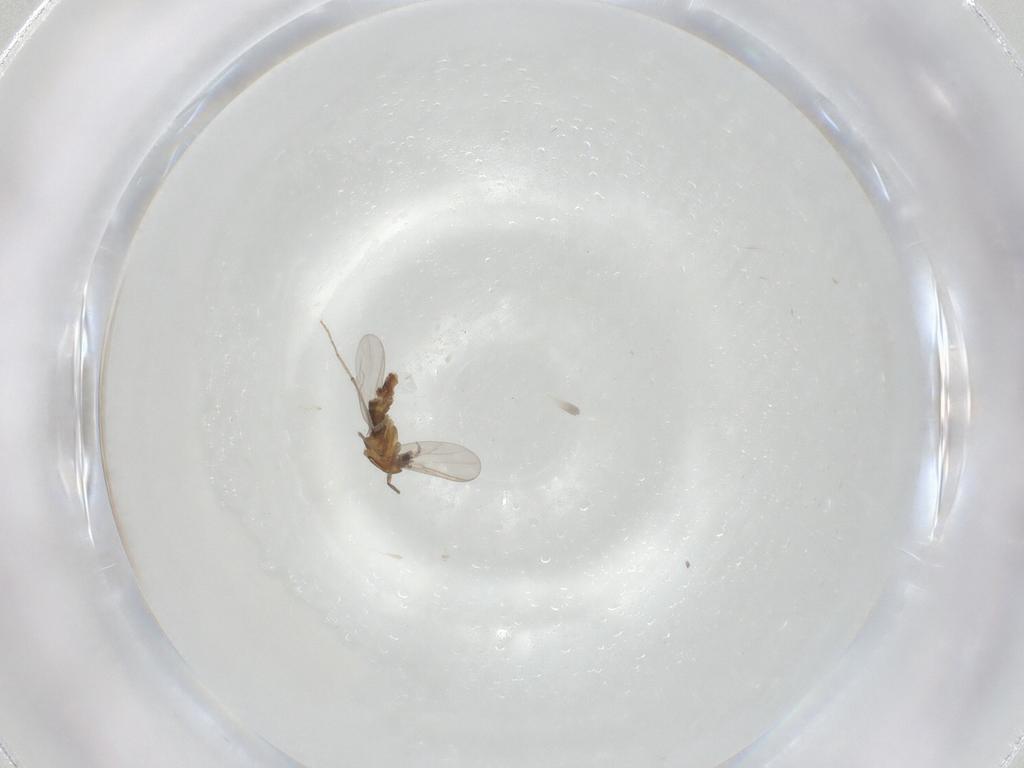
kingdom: Animalia
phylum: Arthropoda
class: Insecta
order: Diptera
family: Chironomidae
